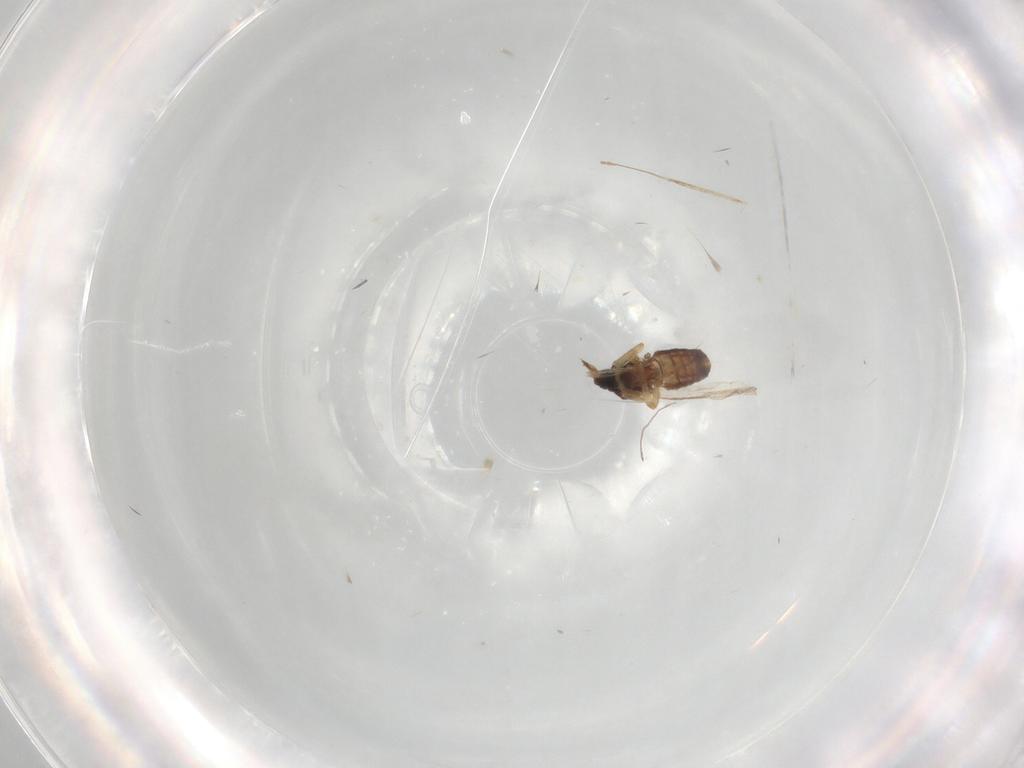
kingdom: Animalia
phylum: Arthropoda
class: Insecta
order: Diptera
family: Ceratopogonidae
